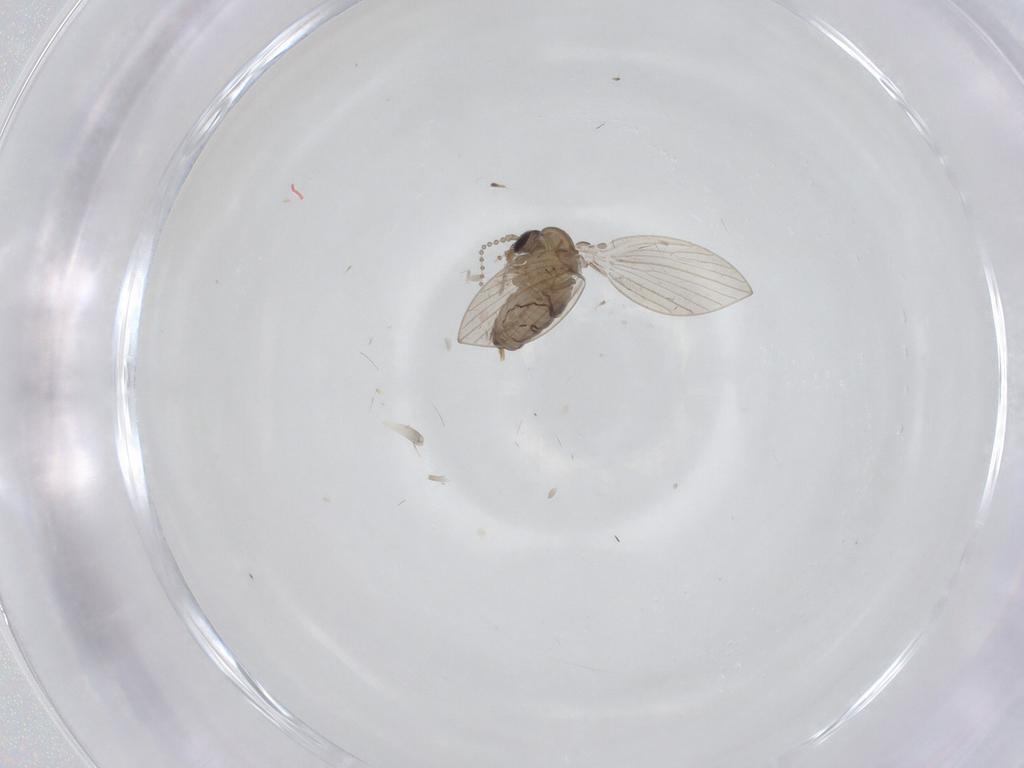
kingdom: Animalia
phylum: Arthropoda
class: Insecta
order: Diptera
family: Psychodidae
